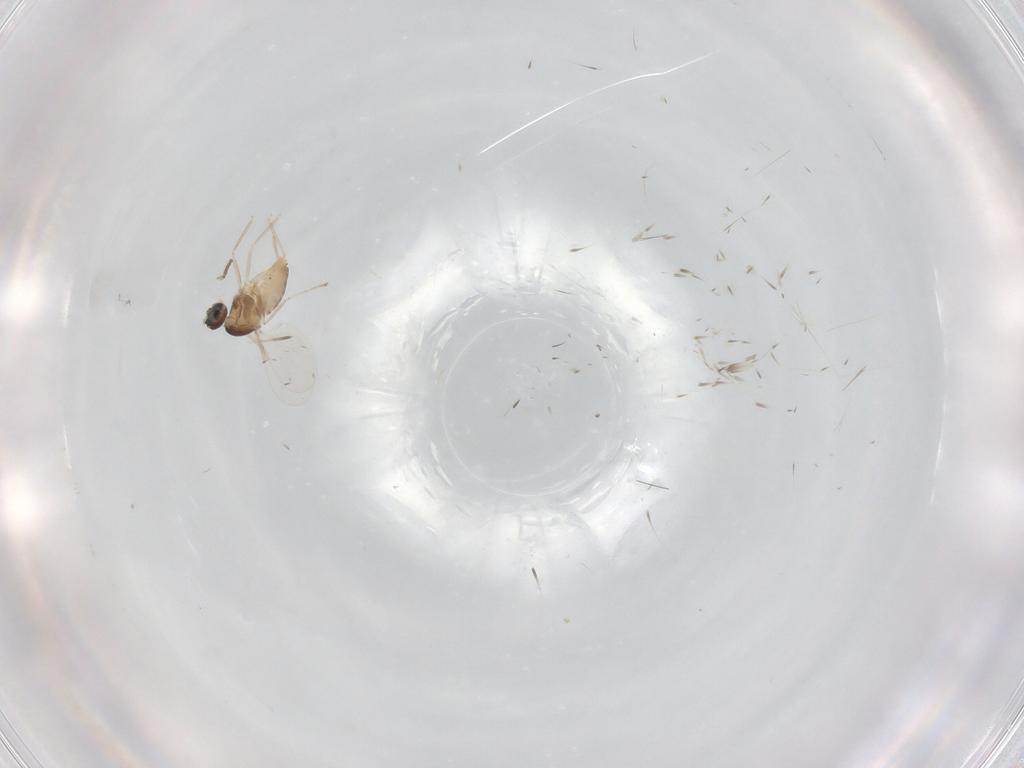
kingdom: Animalia
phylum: Arthropoda
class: Insecta
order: Diptera
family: Cecidomyiidae
